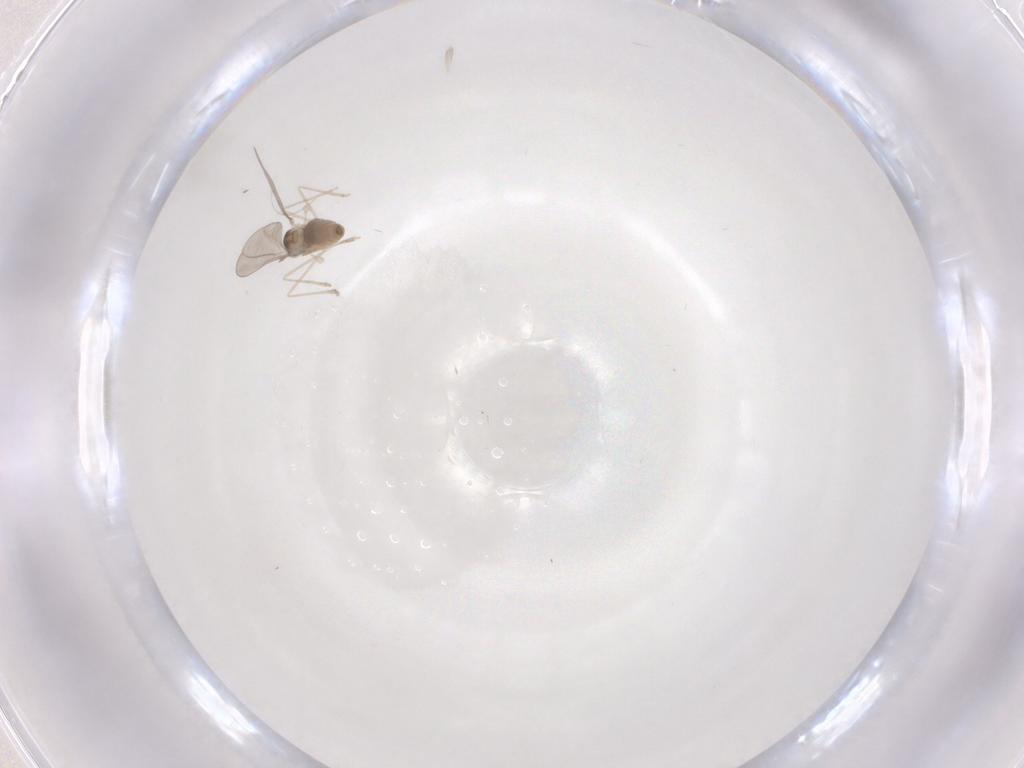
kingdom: Animalia
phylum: Arthropoda
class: Insecta
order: Diptera
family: Cecidomyiidae
